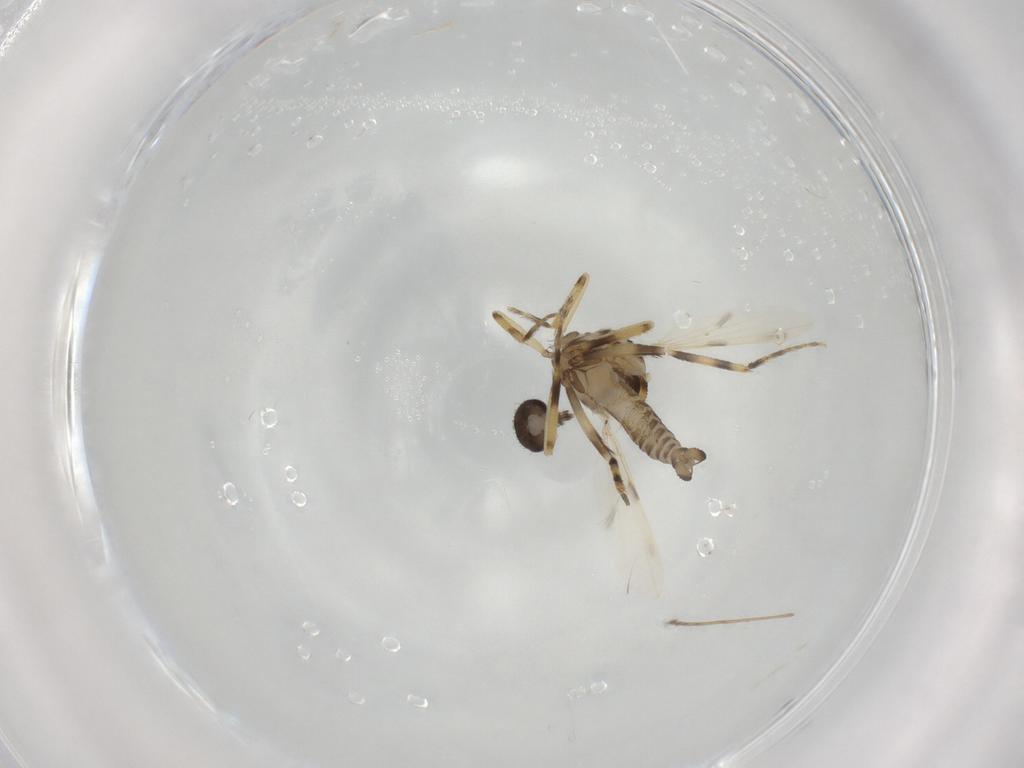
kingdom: Animalia
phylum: Arthropoda
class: Insecta
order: Diptera
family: Ceratopogonidae
